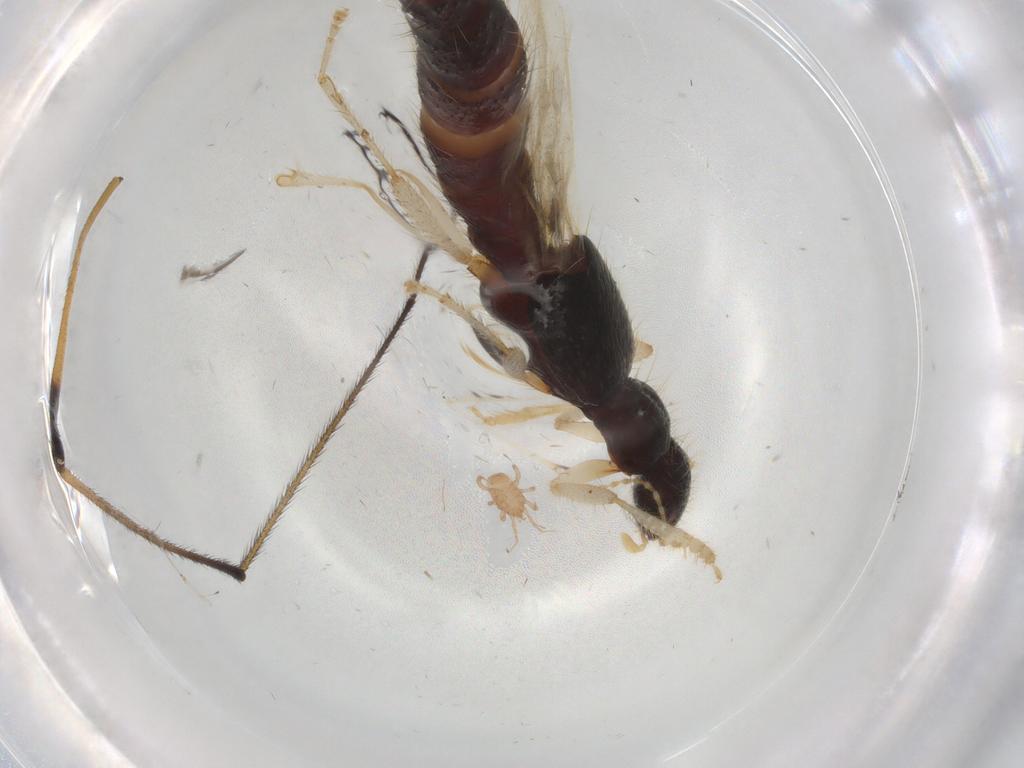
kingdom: Animalia
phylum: Arthropoda
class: Insecta
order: Diptera
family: Limoniidae
